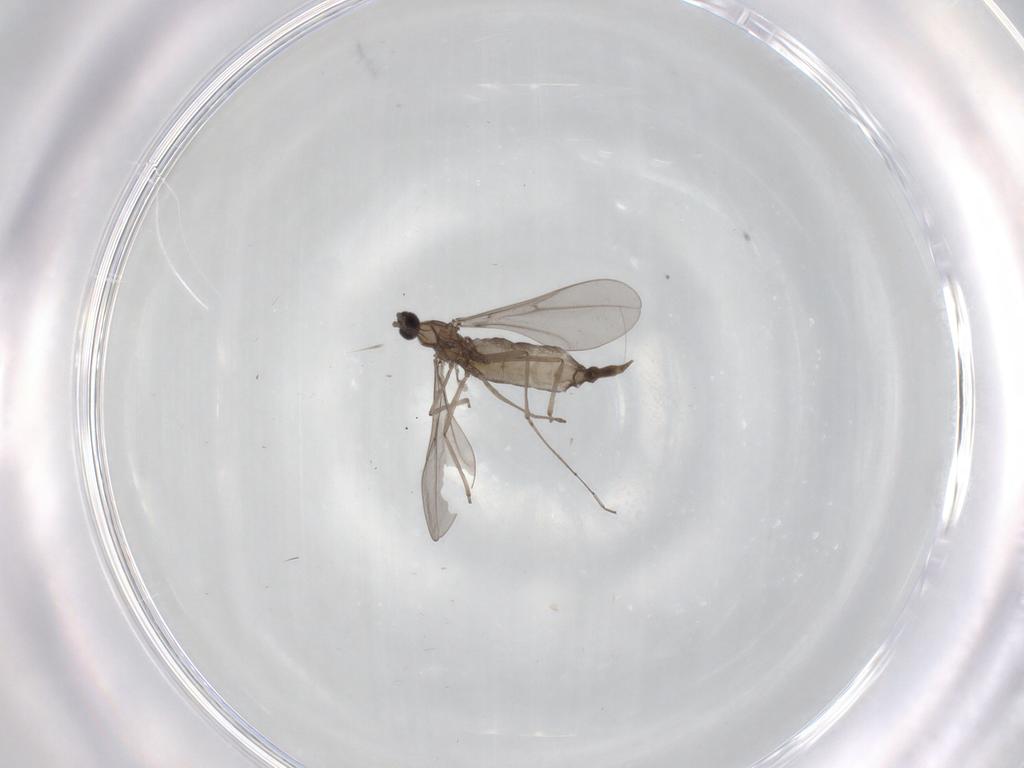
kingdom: Animalia
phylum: Arthropoda
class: Insecta
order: Diptera
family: Cecidomyiidae
